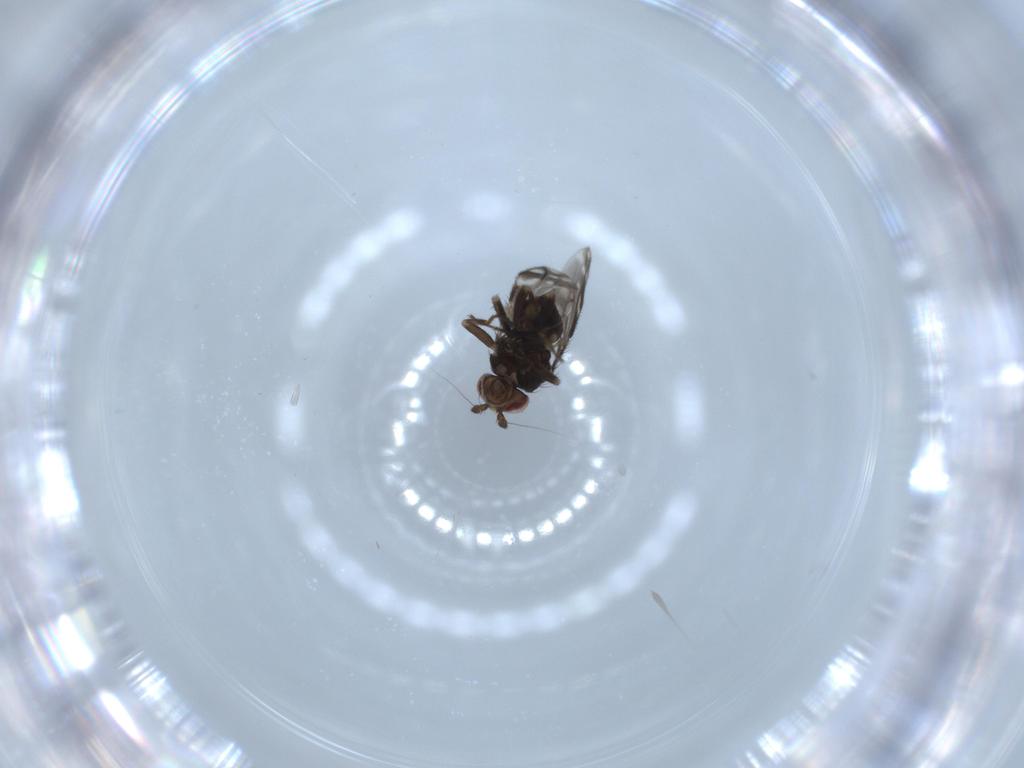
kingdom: Animalia
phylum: Arthropoda
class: Insecta
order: Diptera
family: Sphaeroceridae
